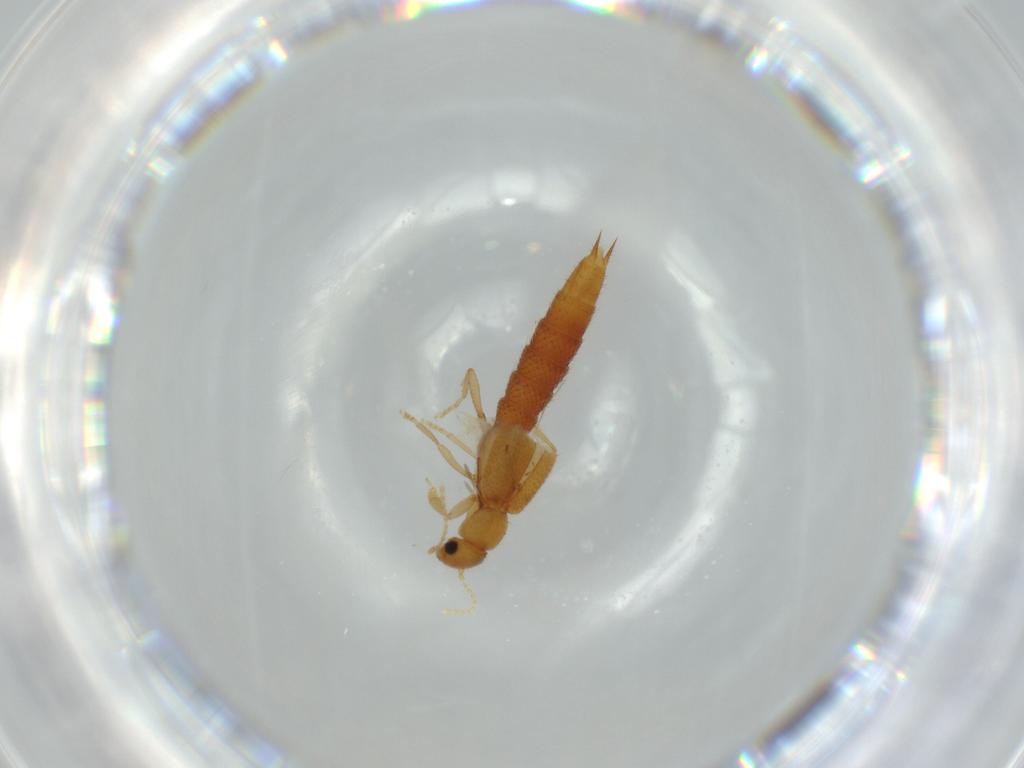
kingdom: Animalia
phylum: Arthropoda
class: Insecta
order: Coleoptera
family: Staphylinidae
